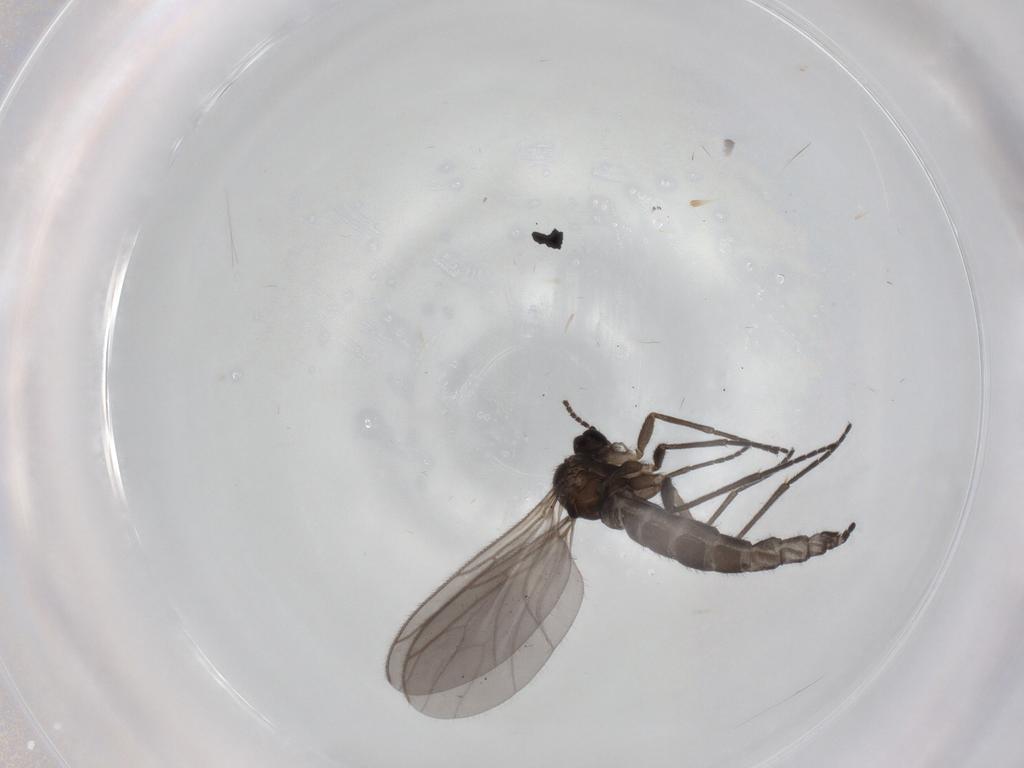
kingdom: Animalia
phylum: Arthropoda
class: Insecta
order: Diptera
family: Sciaridae
